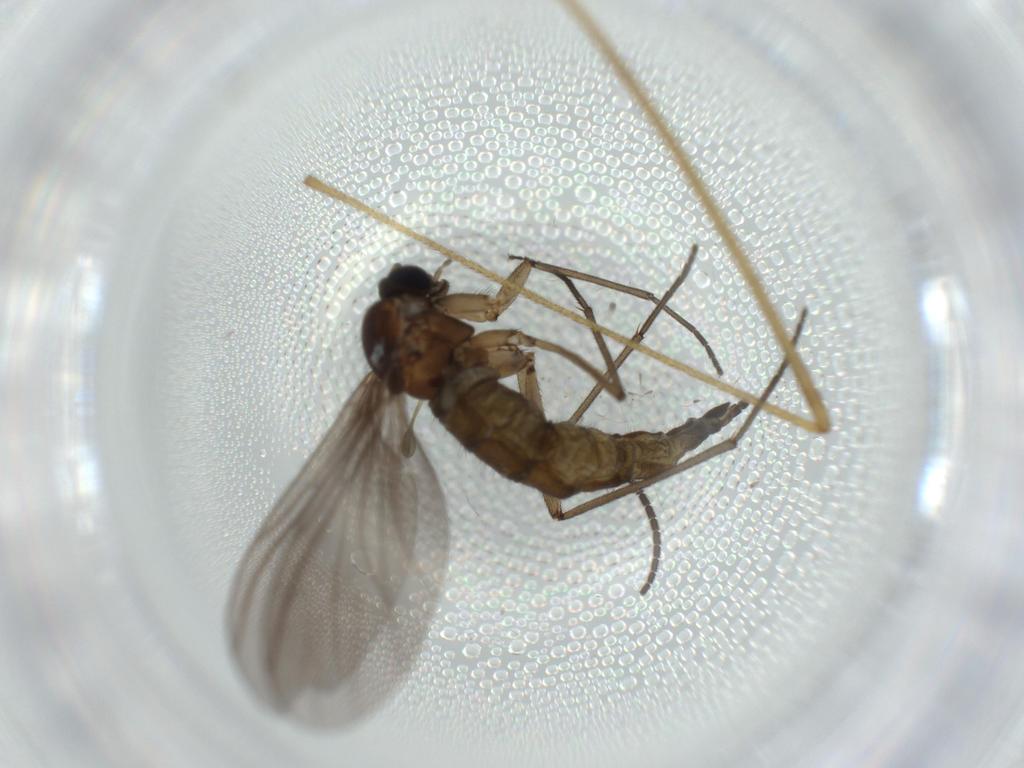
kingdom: Animalia
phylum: Arthropoda
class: Insecta
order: Diptera
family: Sciaridae
